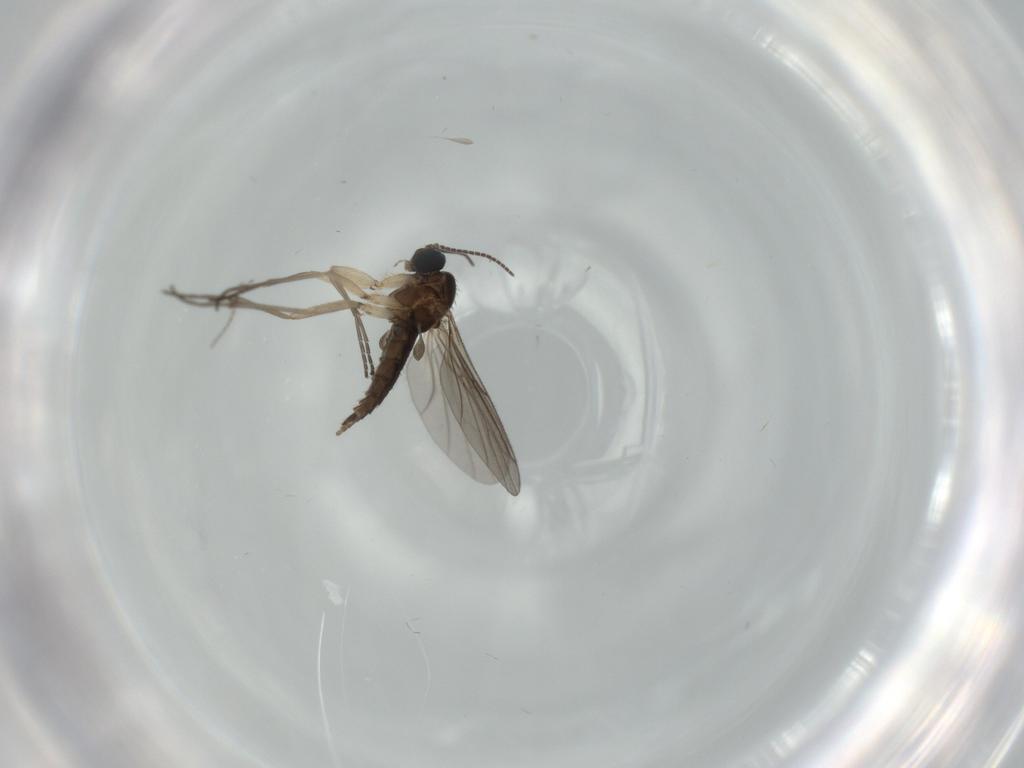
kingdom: Animalia
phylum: Arthropoda
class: Insecta
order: Diptera
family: Sciaridae
